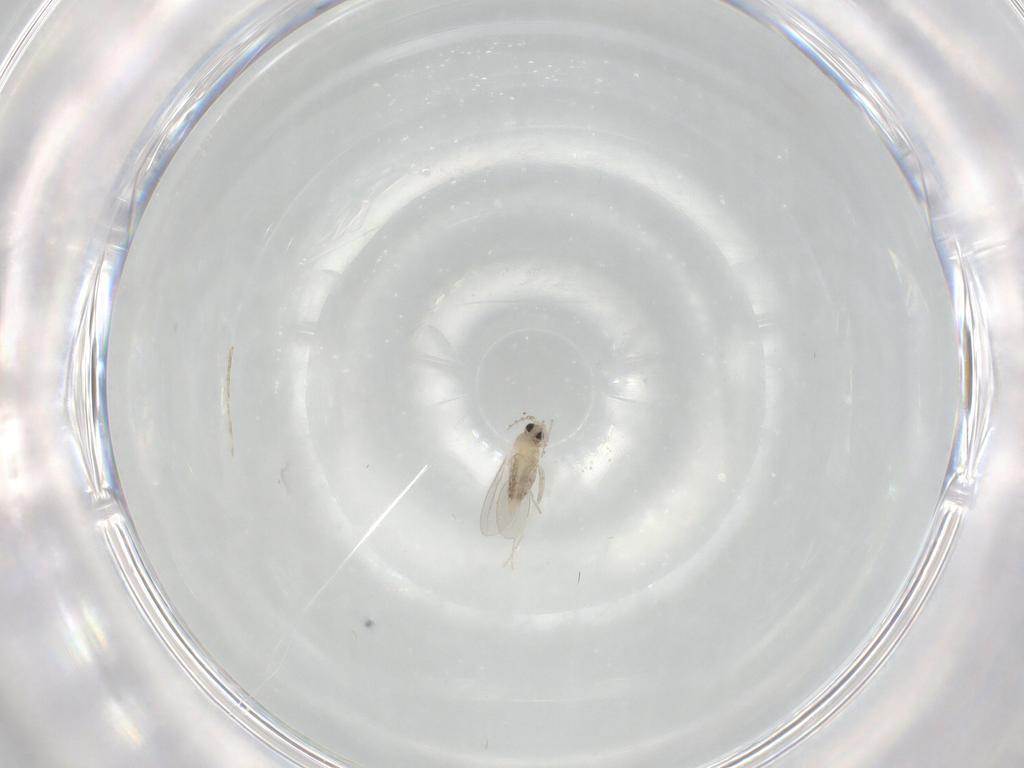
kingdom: Animalia
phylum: Arthropoda
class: Insecta
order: Diptera
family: Cecidomyiidae
